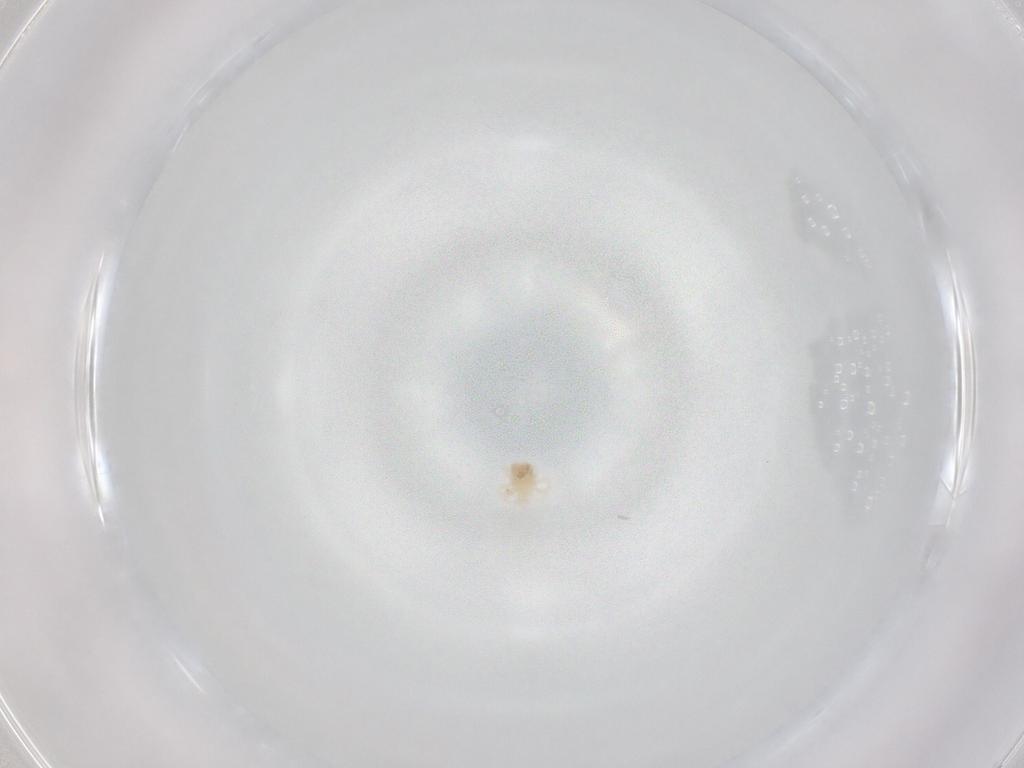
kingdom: Animalia
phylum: Arthropoda
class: Arachnida
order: Trombidiformes
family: Anystidae
